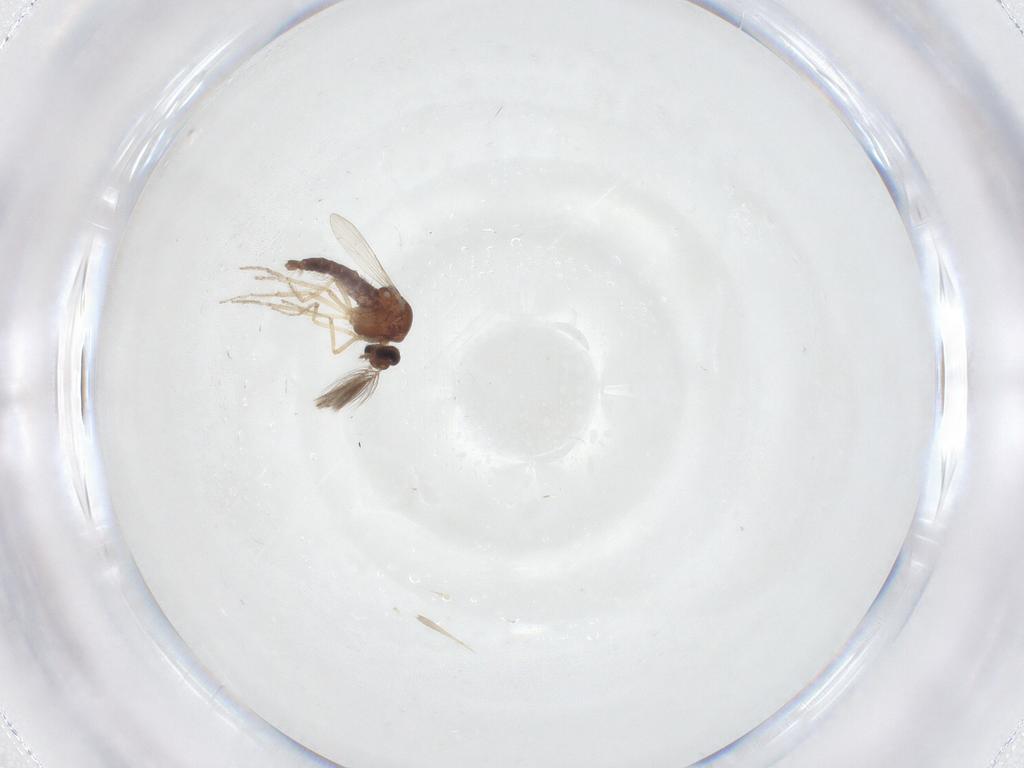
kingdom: Animalia
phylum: Arthropoda
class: Insecta
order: Diptera
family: Ceratopogonidae
